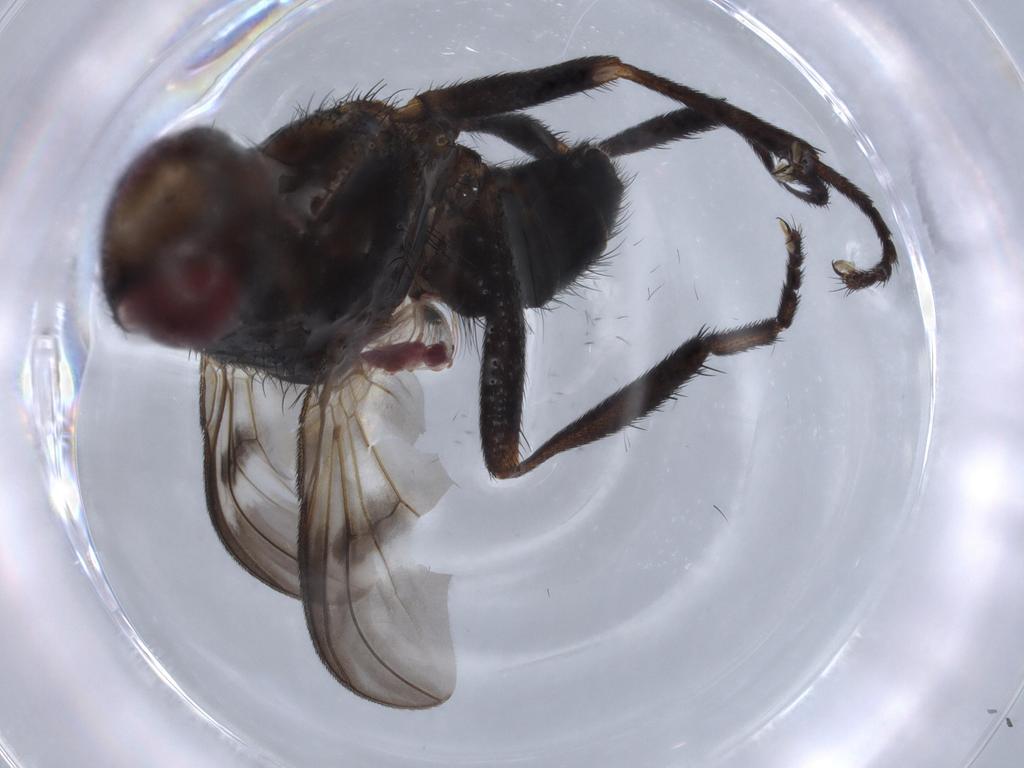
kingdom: Animalia
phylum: Arthropoda
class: Insecta
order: Diptera
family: Calliphoridae
